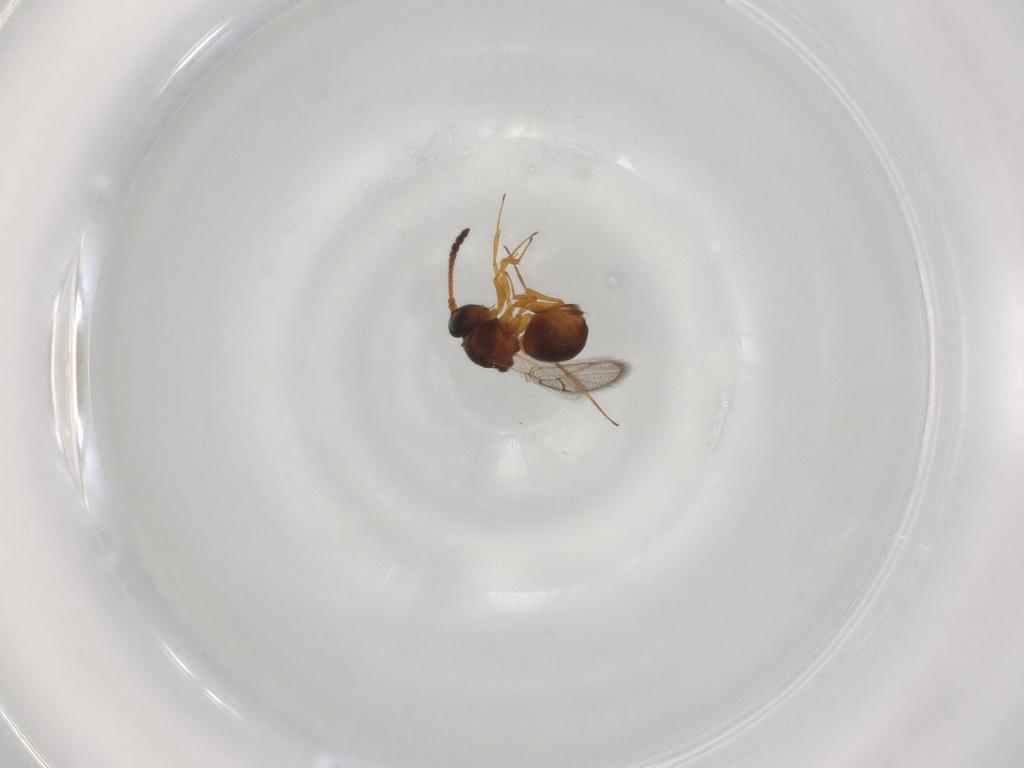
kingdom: Animalia
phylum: Arthropoda
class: Insecta
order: Hymenoptera
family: Figitidae
